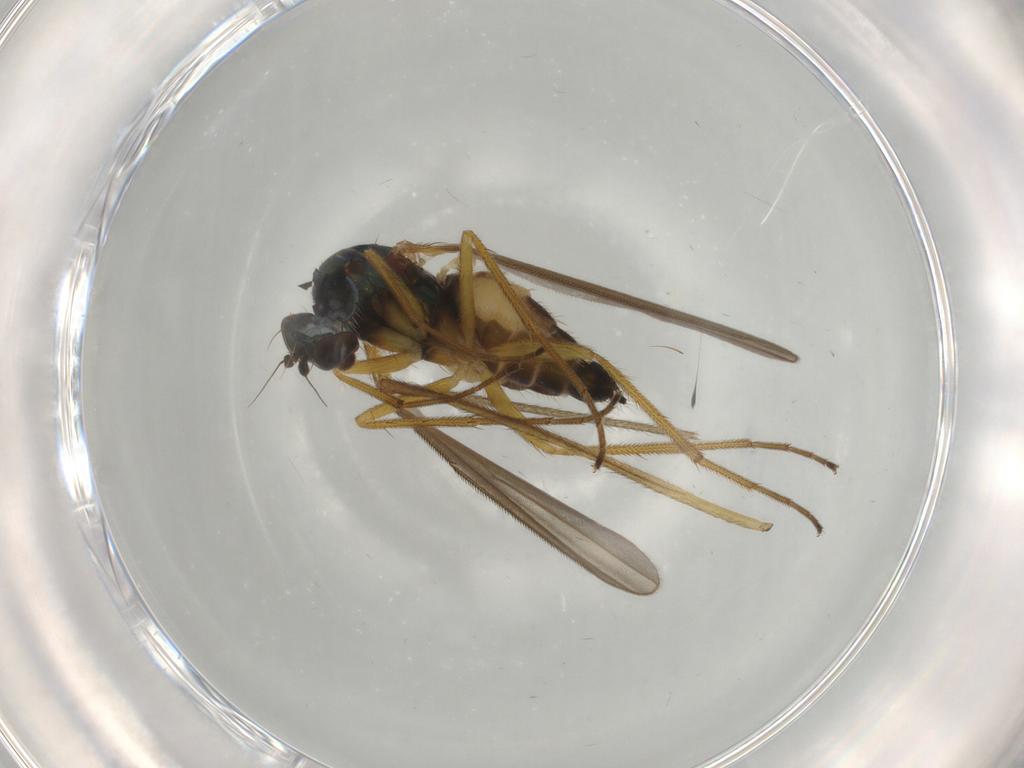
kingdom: Animalia
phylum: Arthropoda
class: Insecta
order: Diptera
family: Dolichopodidae
